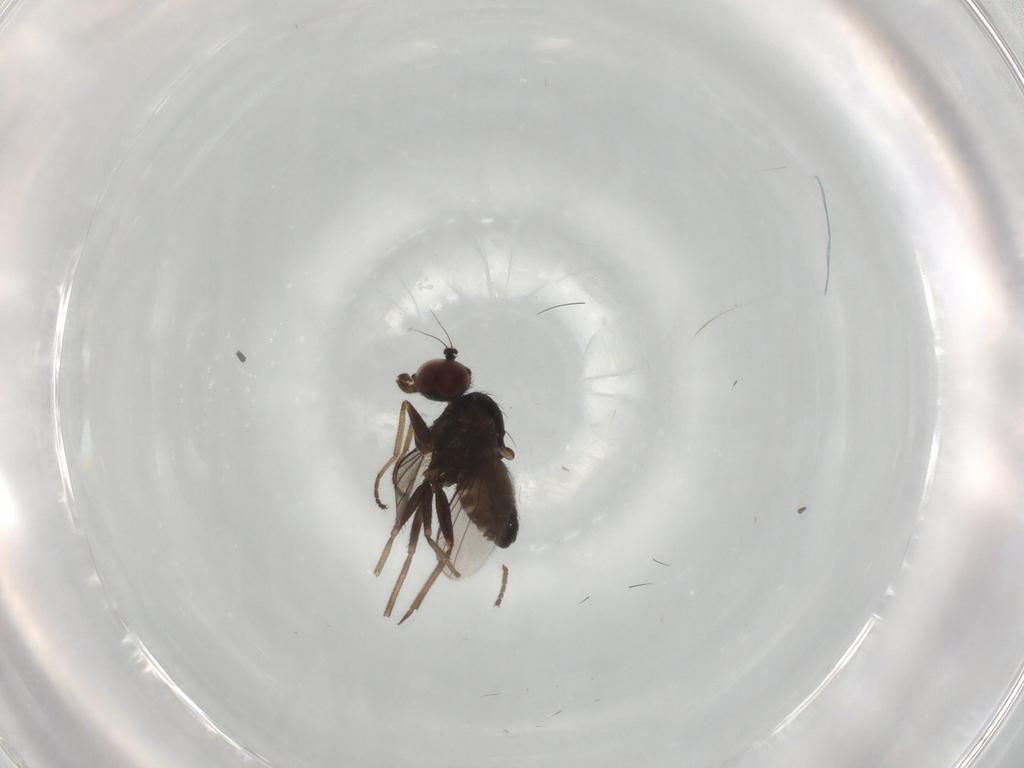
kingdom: Animalia
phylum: Arthropoda
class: Insecta
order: Diptera
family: Dolichopodidae
